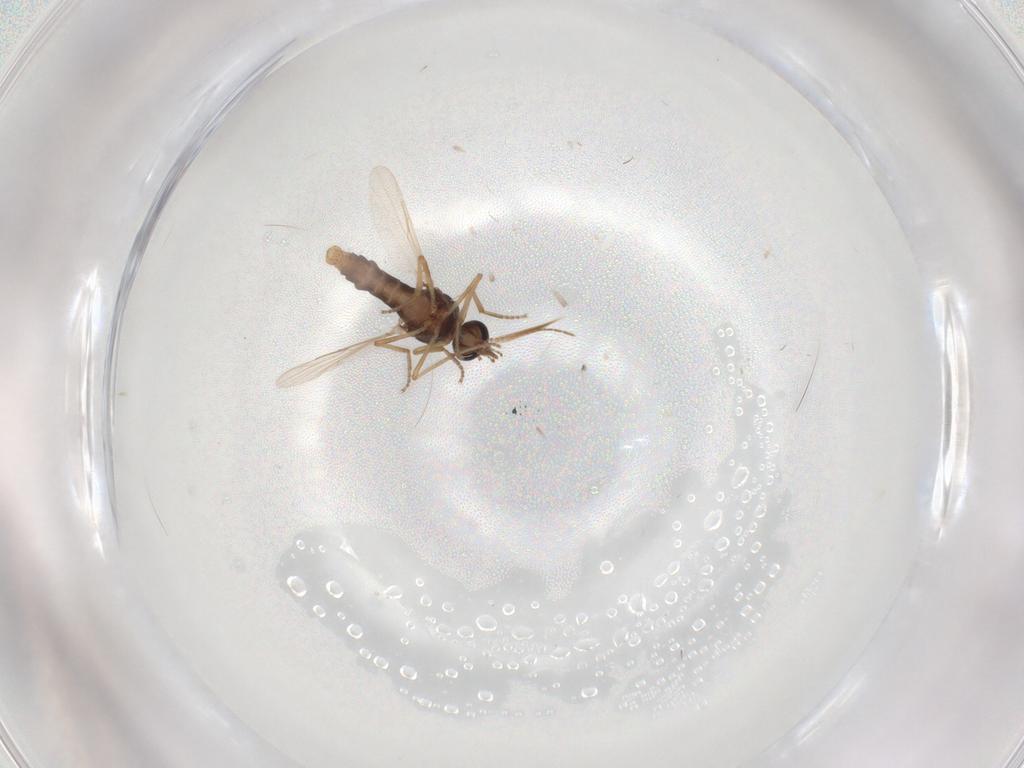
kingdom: Animalia
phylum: Arthropoda
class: Insecta
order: Diptera
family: Ceratopogonidae
